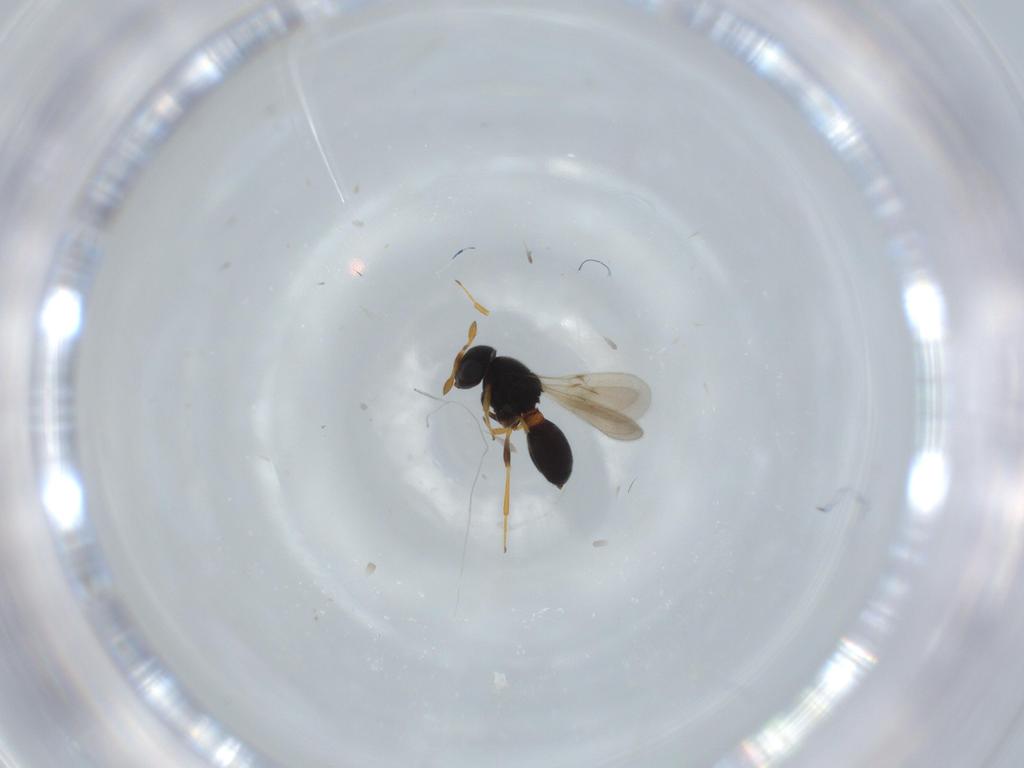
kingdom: Animalia
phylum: Arthropoda
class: Insecta
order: Hymenoptera
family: Scelionidae
